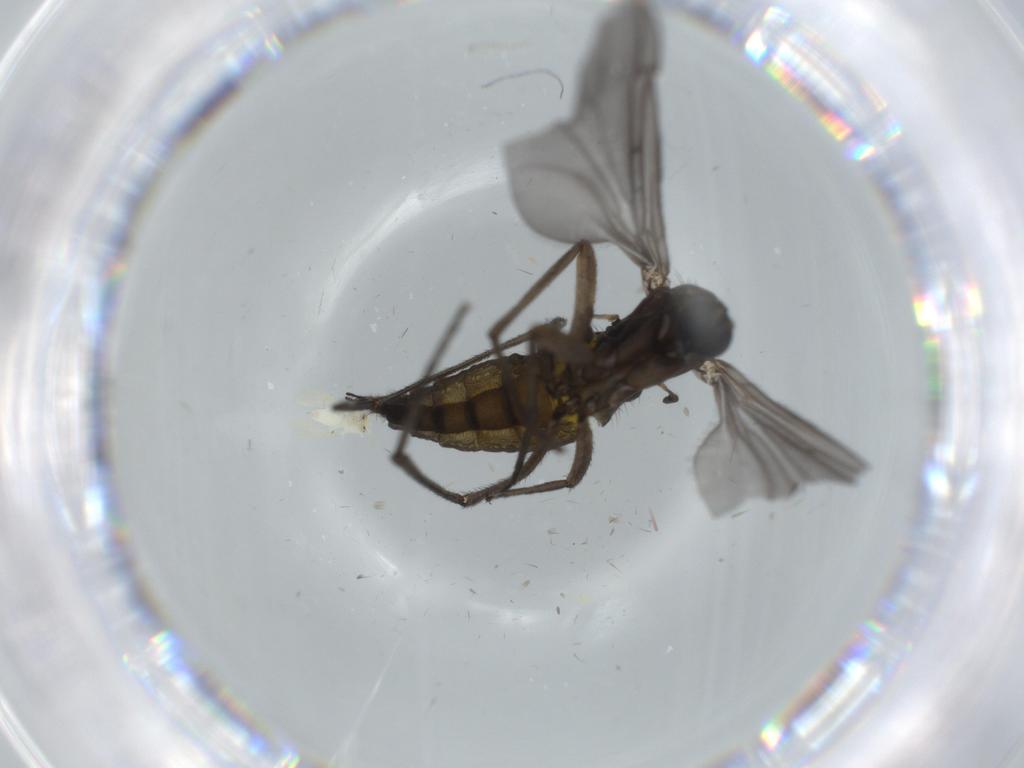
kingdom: Animalia
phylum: Arthropoda
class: Insecta
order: Diptera
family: Sciaridae
